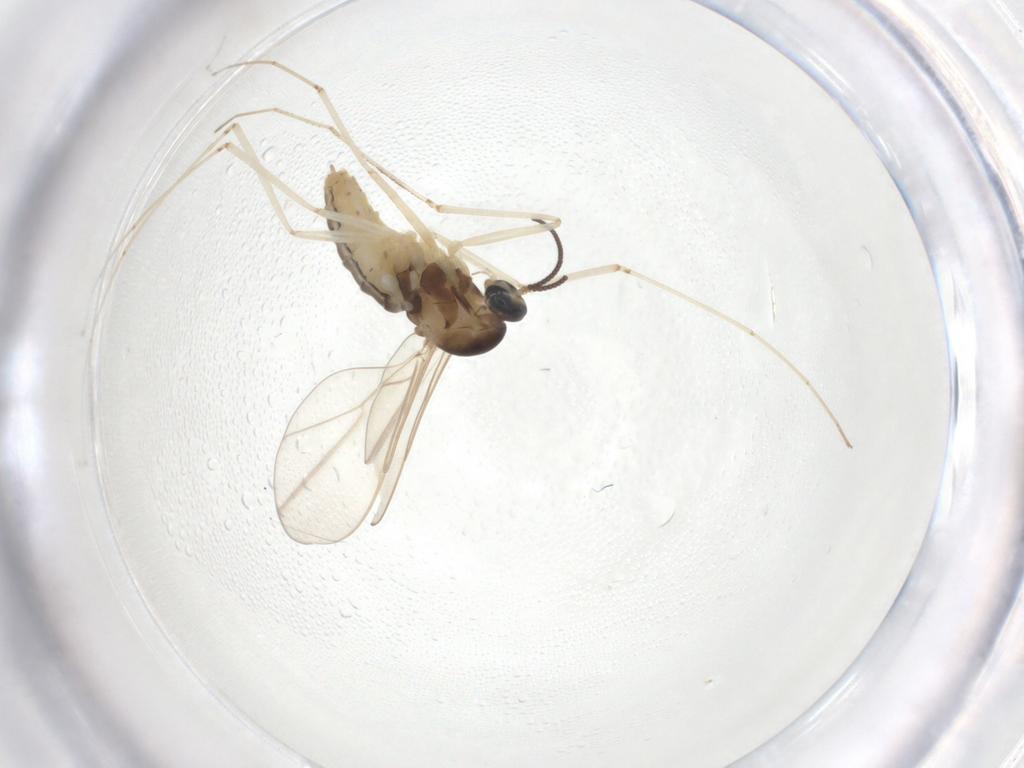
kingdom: Animalia
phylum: Arthropoda
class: Insecta
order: Diptera
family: Cecidomyiidae
